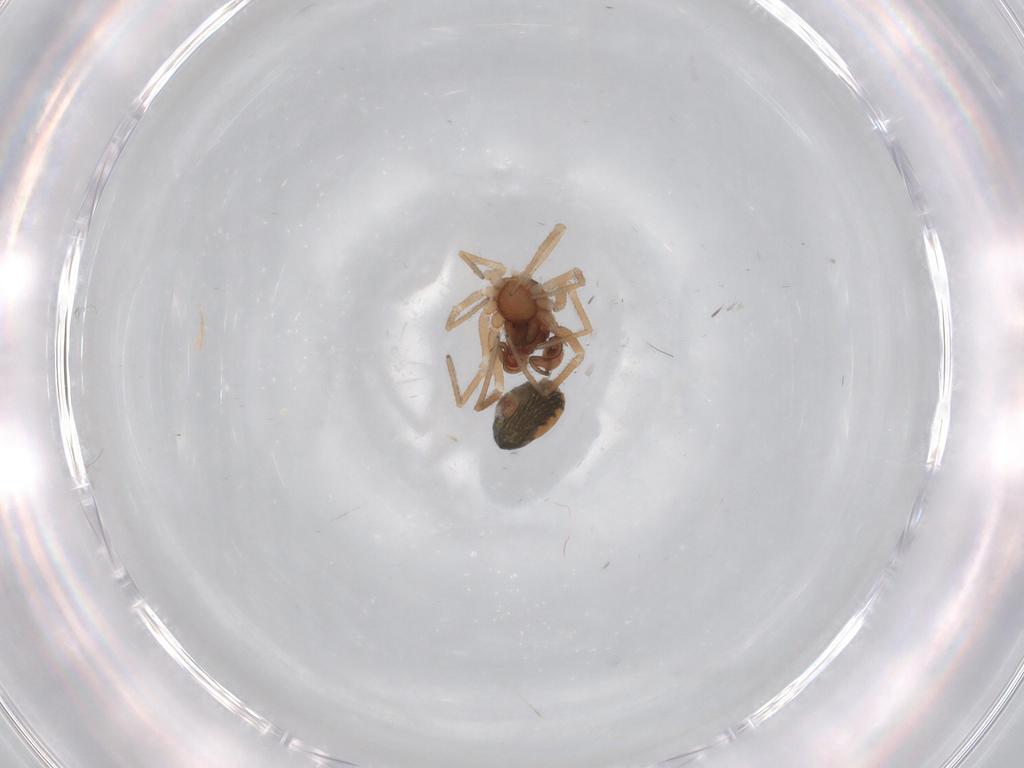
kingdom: Animalia
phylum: Arthropoda
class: Arachnida
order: Araneae
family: Dictynidae
